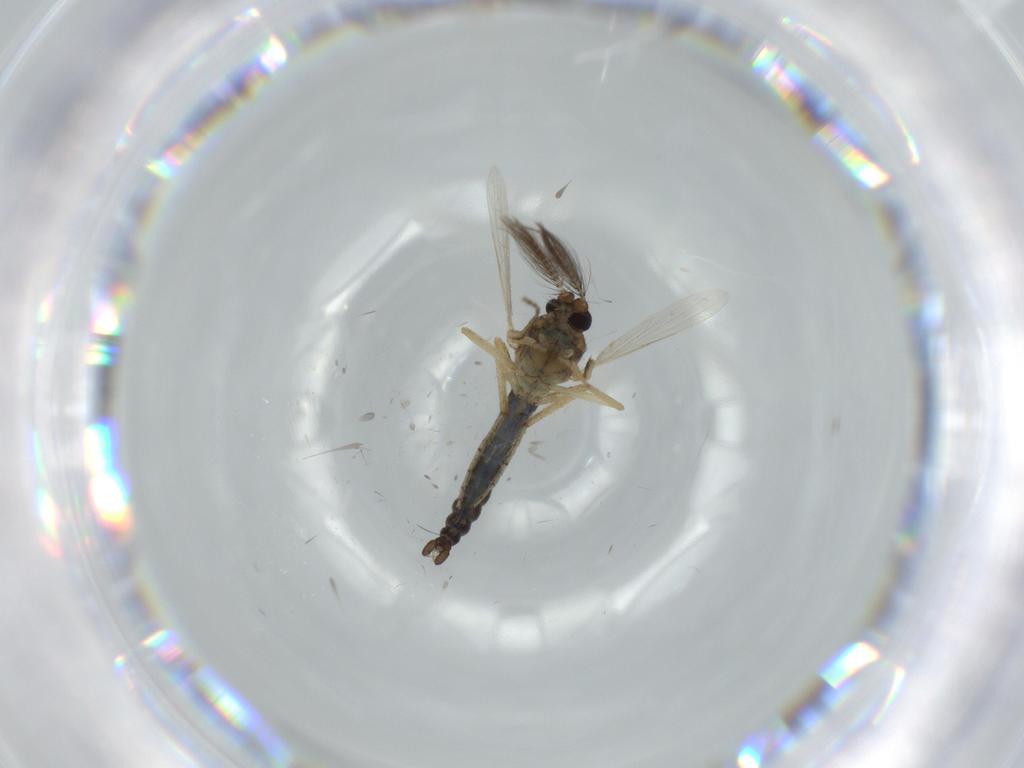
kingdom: Animalia
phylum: Arthropoda
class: Insecta
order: Diptera
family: Ceratopogonidae
